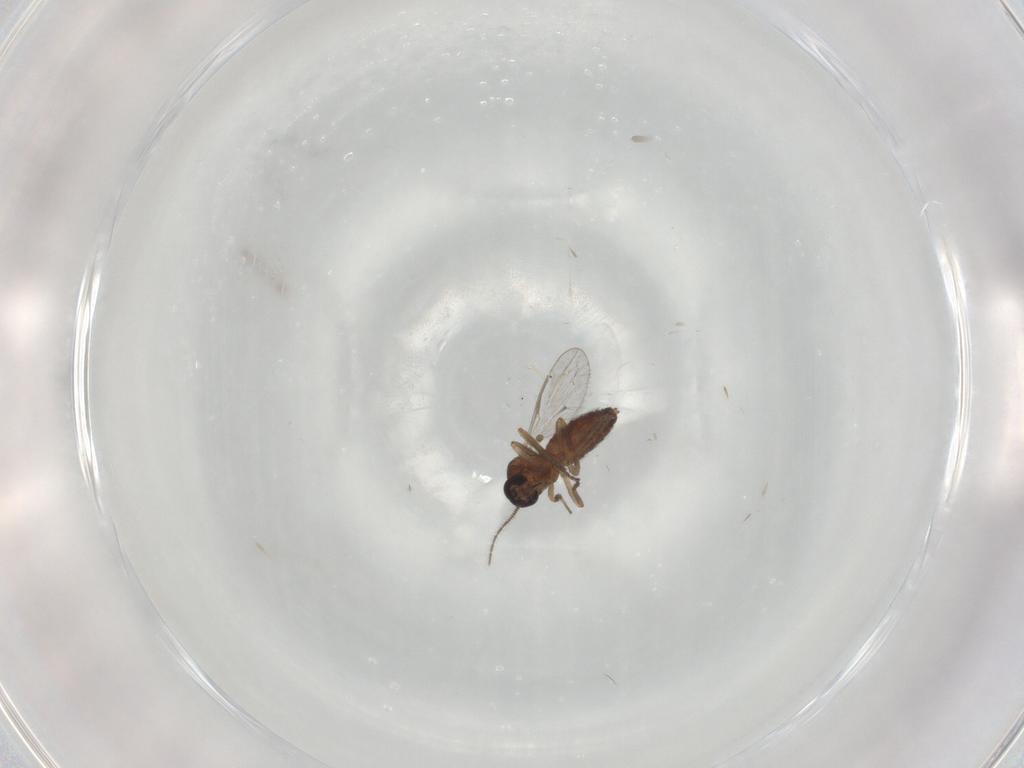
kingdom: Animalia
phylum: Arthropoda
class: Insecta
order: Diptera
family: Ceratopogonidae
